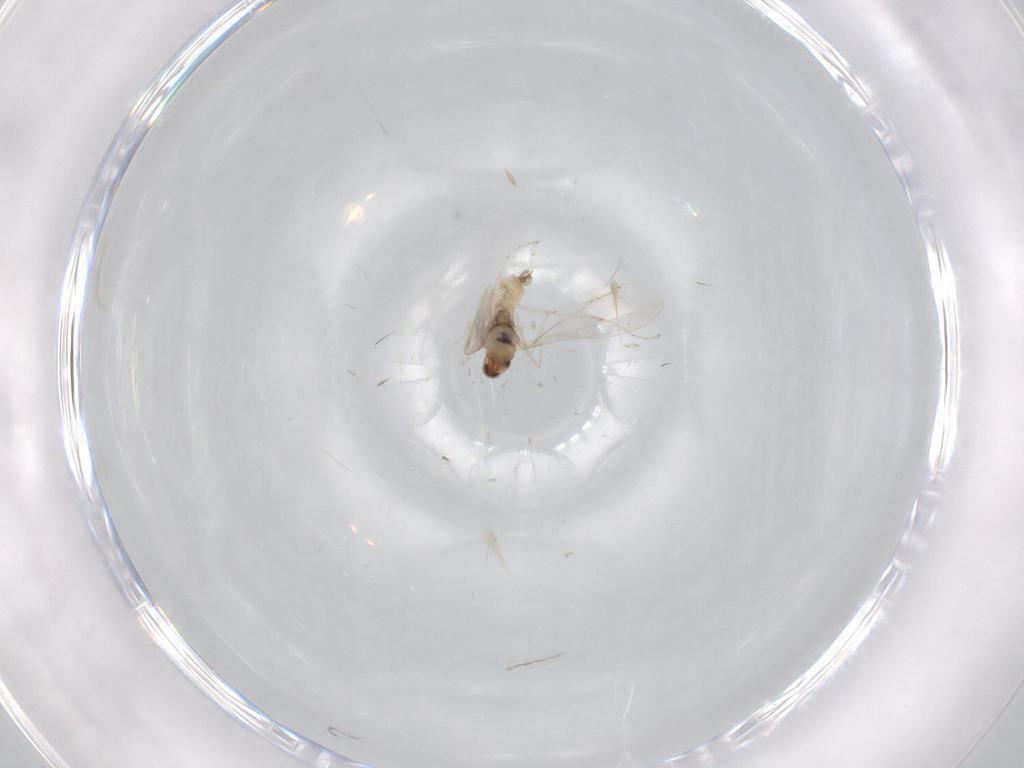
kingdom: Animalia
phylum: Arthropoda
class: Insecta
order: Diptera
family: Cecidomyiidae
